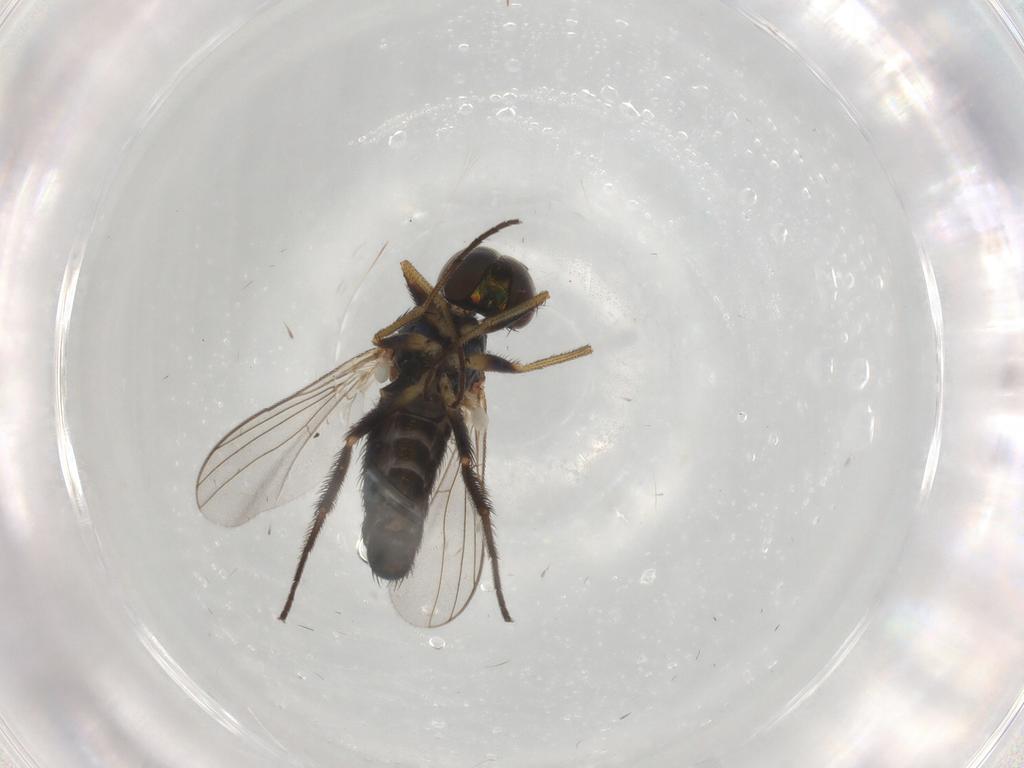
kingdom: Animalia
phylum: Arthropoda
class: Insecta
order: Diptera
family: Dolichopodidae
